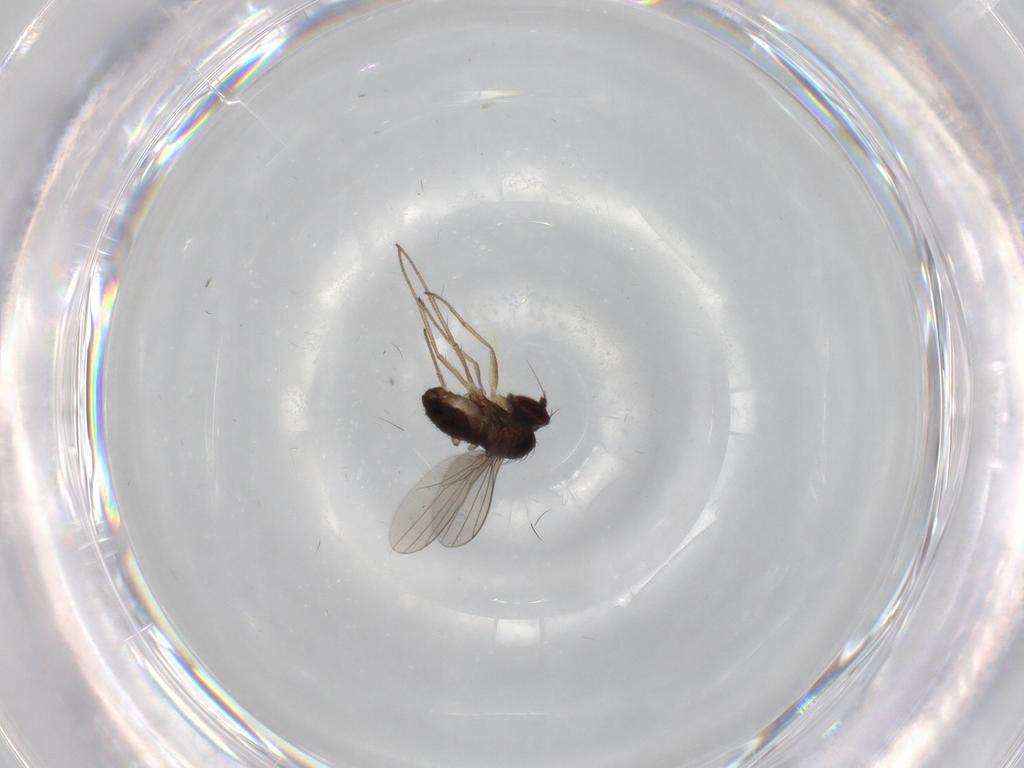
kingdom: Animalia
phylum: Arthropoda
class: Insecta
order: Diptera
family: Dolichopodidae
